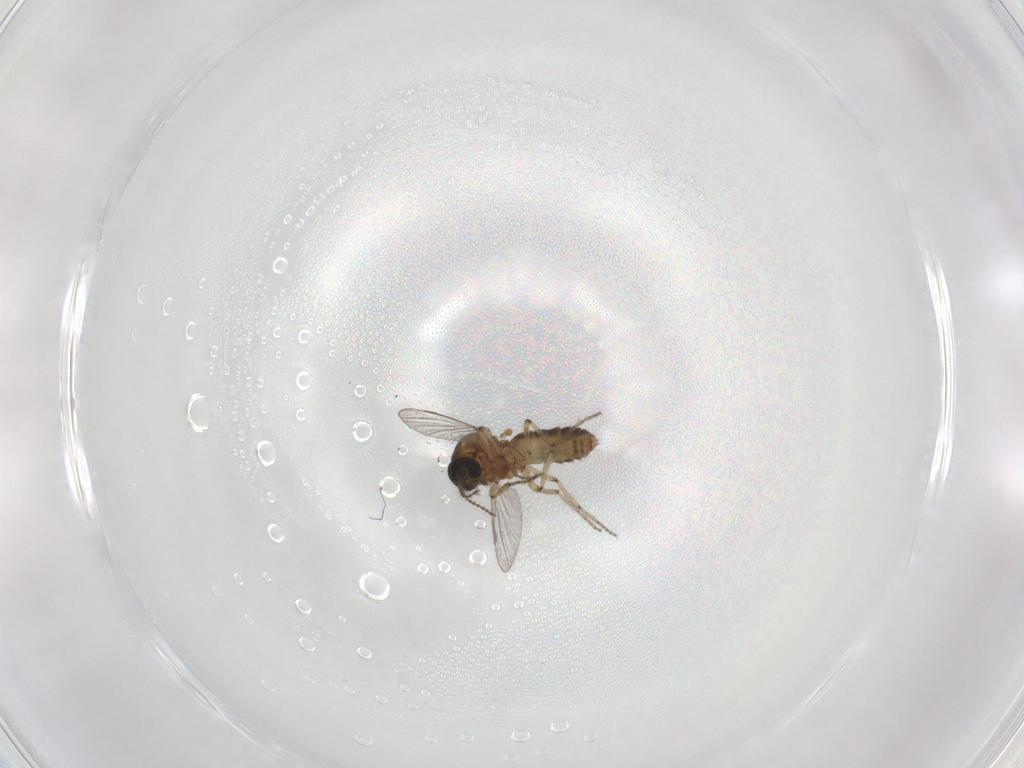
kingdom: Animalia
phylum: Arthropoda
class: Insecta
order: Diptera
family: Ceratopogonidae
